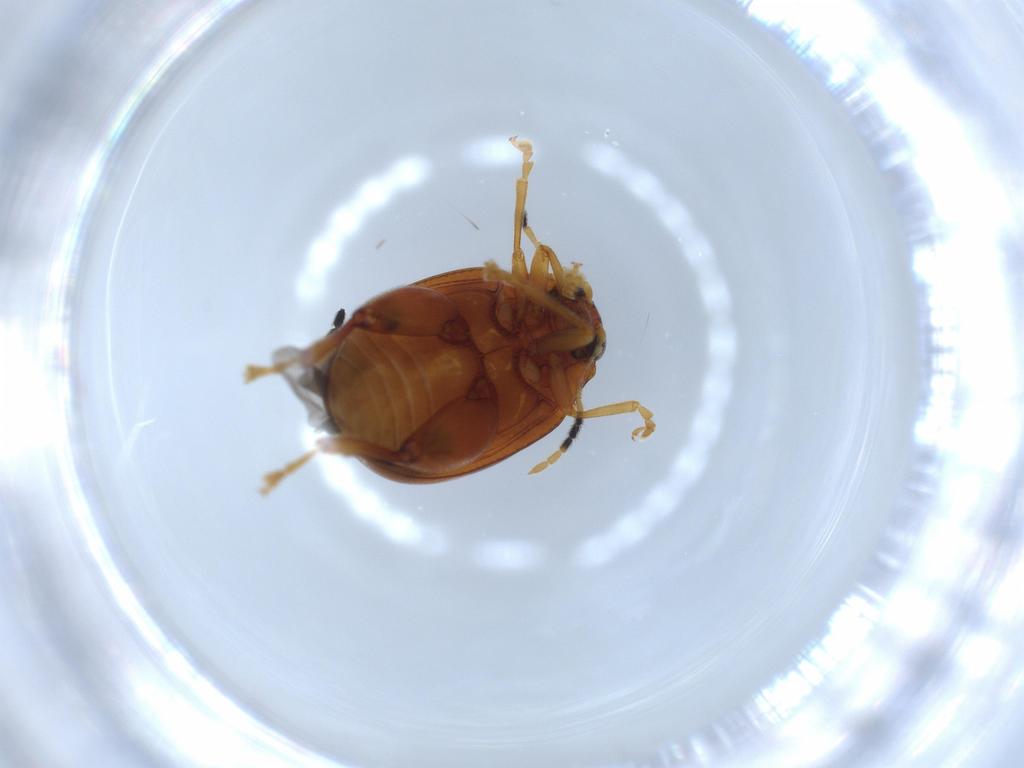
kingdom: Animalia
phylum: Arthropoda
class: Insecta
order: Coleoptera
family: Chrysomelidae
